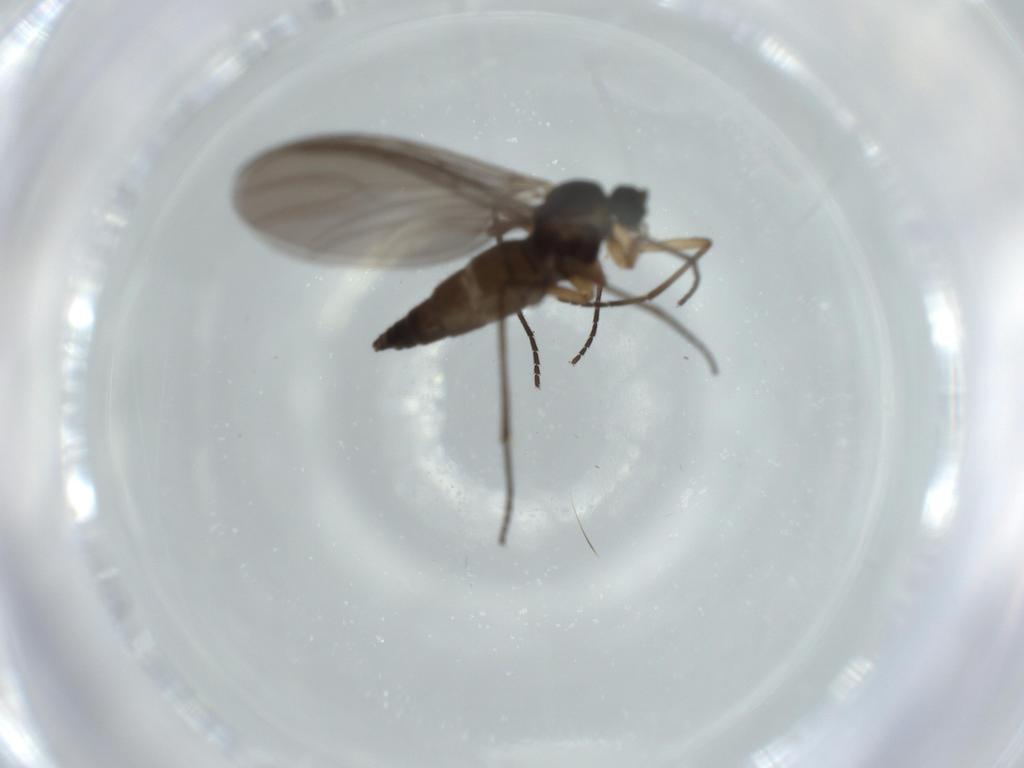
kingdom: Animalia
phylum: Arthropoda
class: Insecta
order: Diptera
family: Sciaridae
